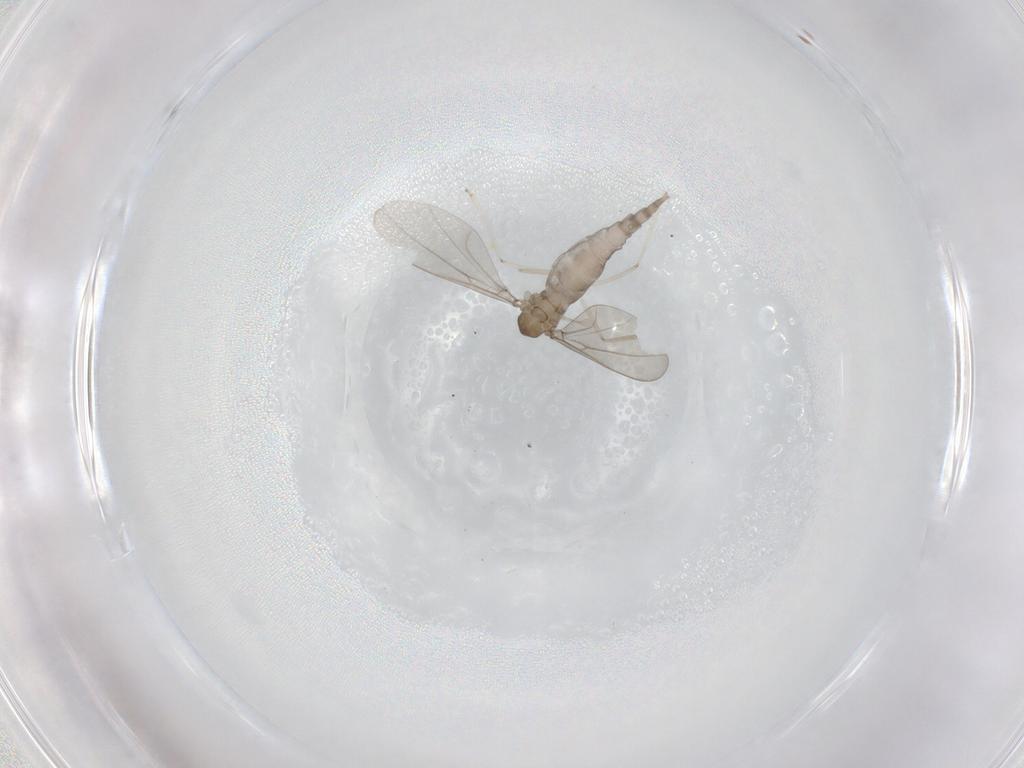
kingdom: Animalia
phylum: Arthropoda
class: Insecta
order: Diptera
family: Cecidomyiidae
